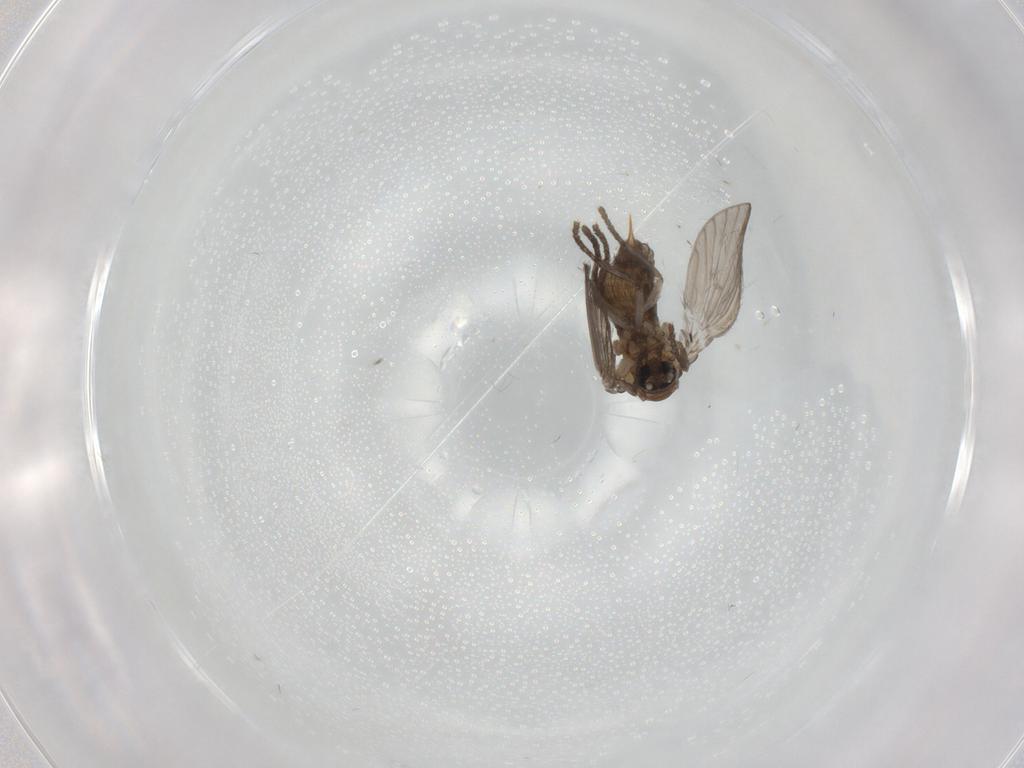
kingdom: Animalia
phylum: Arthropoda
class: Insecta
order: Diptera
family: Psychodidae
